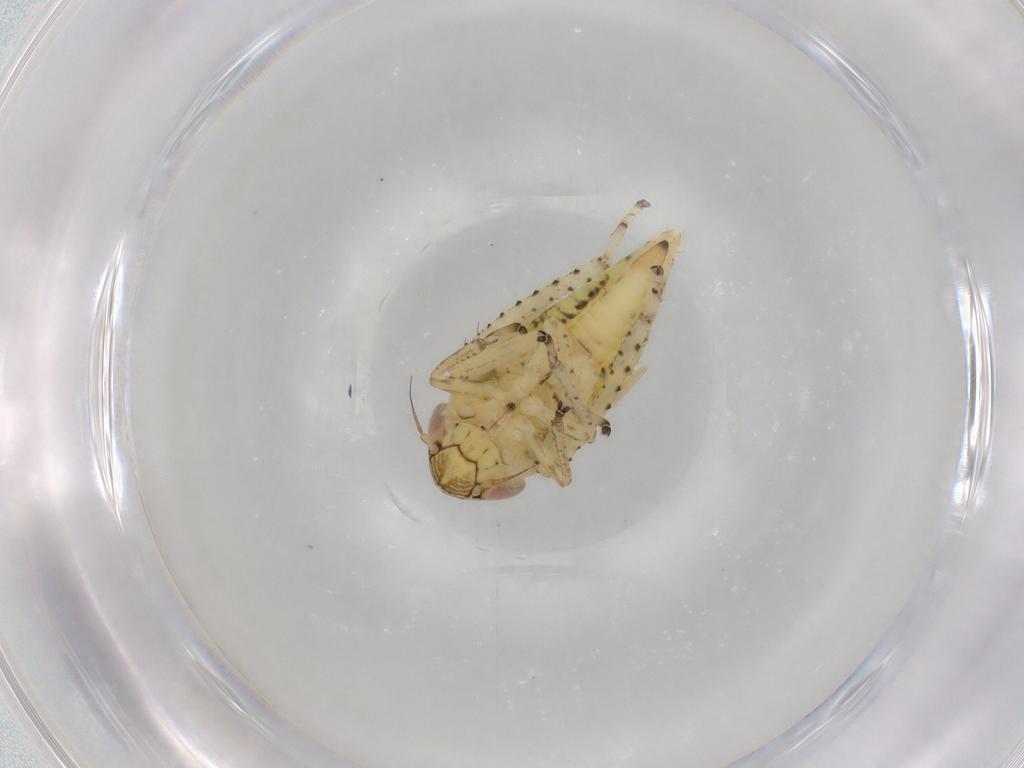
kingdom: Animalia
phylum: Arthropoda
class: Insecta
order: Hemiptera
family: Cicadellidae
